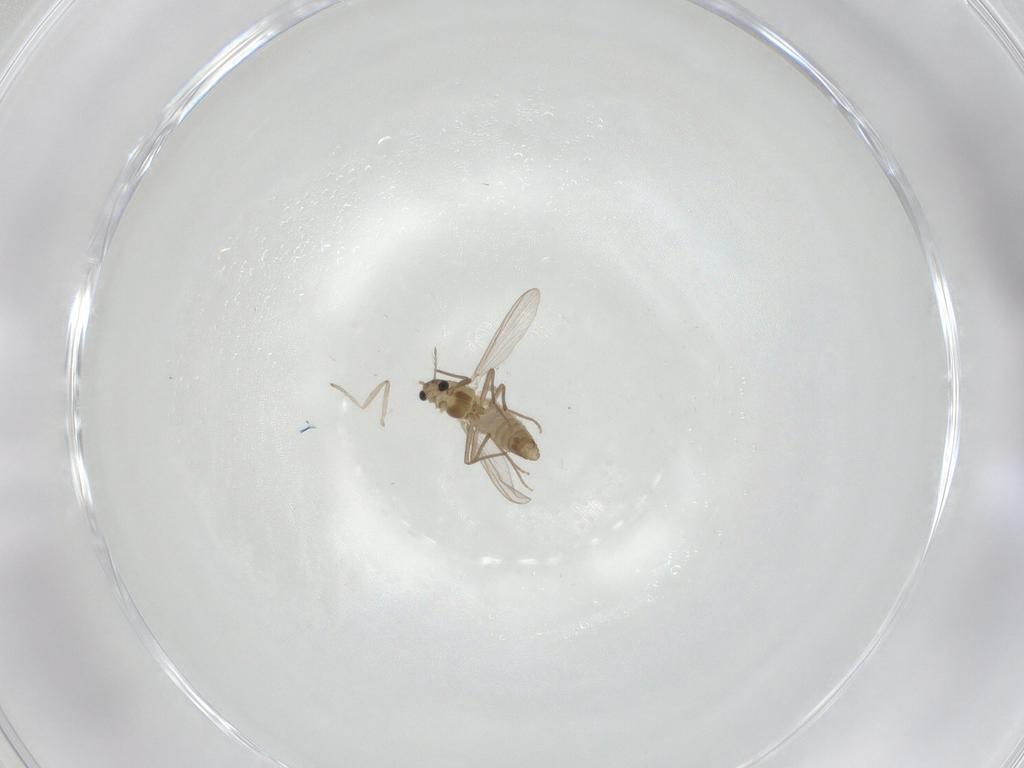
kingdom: Animalia
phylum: Arthropoda
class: Insecta
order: Diptera
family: Chironomidae
